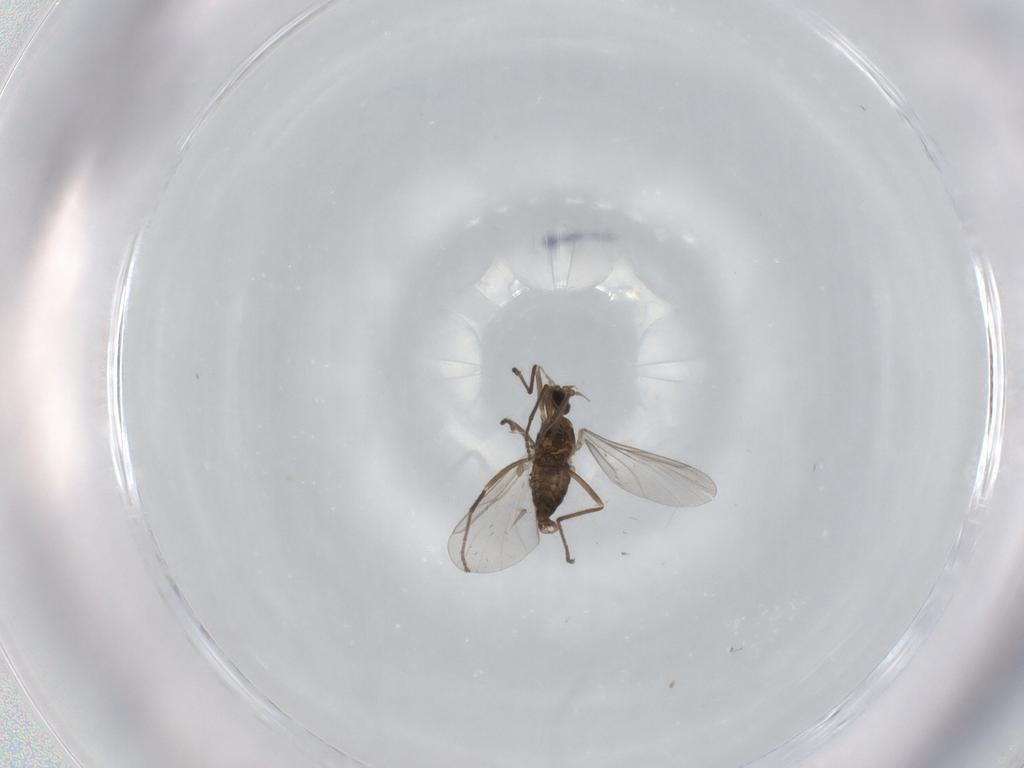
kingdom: Animalia
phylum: Arthropoda
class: Insecta
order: Diptera
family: Cecidomyiidae
